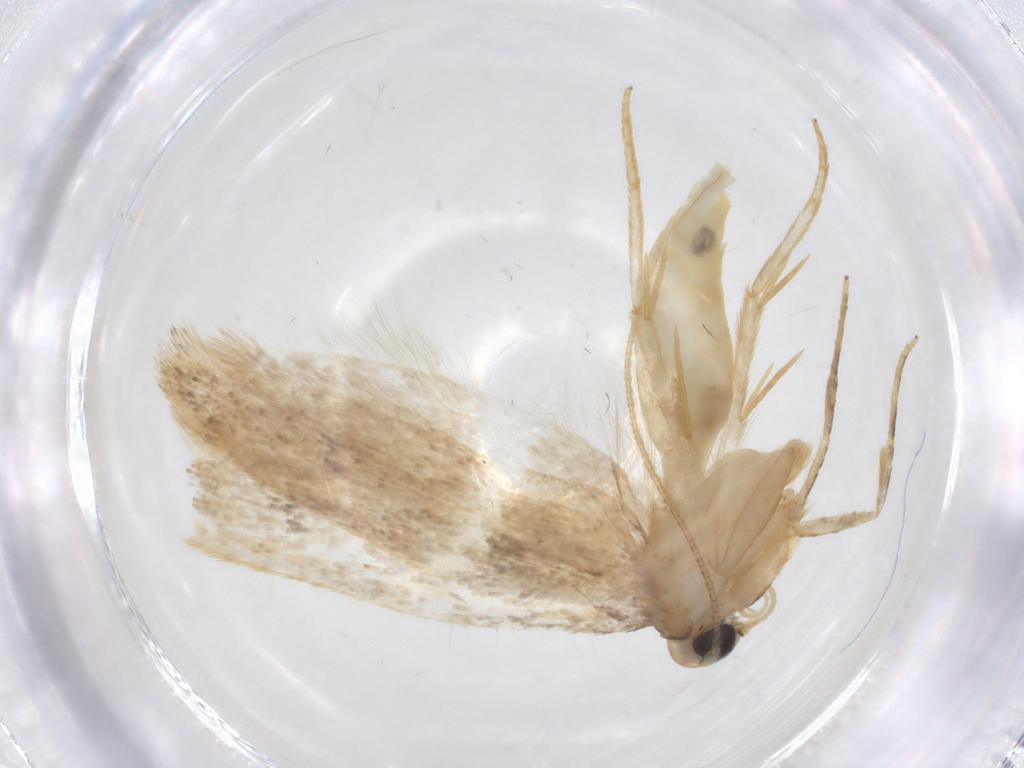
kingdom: Animalia
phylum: Arthropoda
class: Insecta
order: Lepidoptera
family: Oecophoridae
